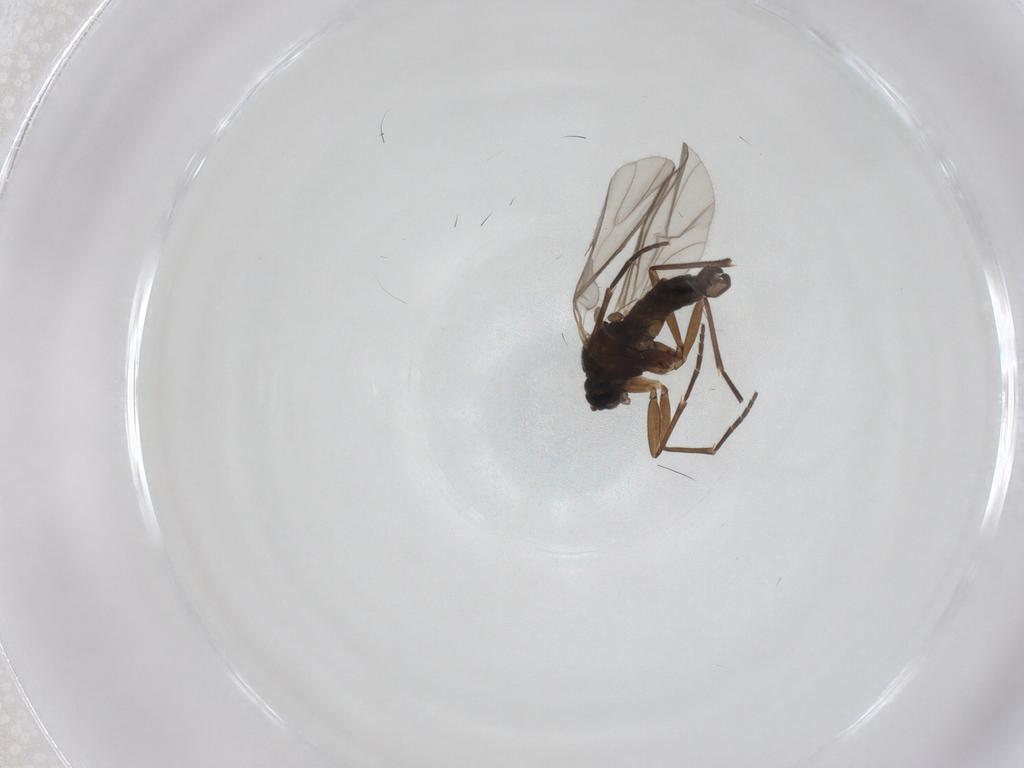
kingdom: Animalia
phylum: Arthropoda
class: Insecta
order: Diptera
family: Sciaridae
